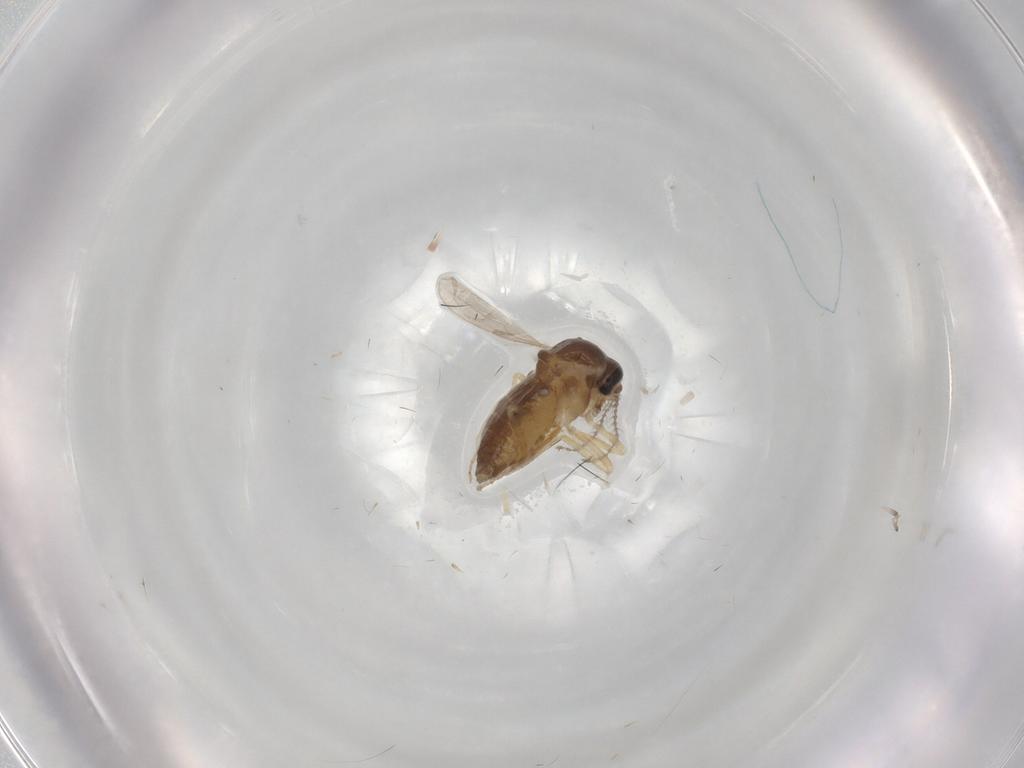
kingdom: Animalia
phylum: Arthropoda
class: Insecta
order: Diptera
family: Ceratopogonidae
